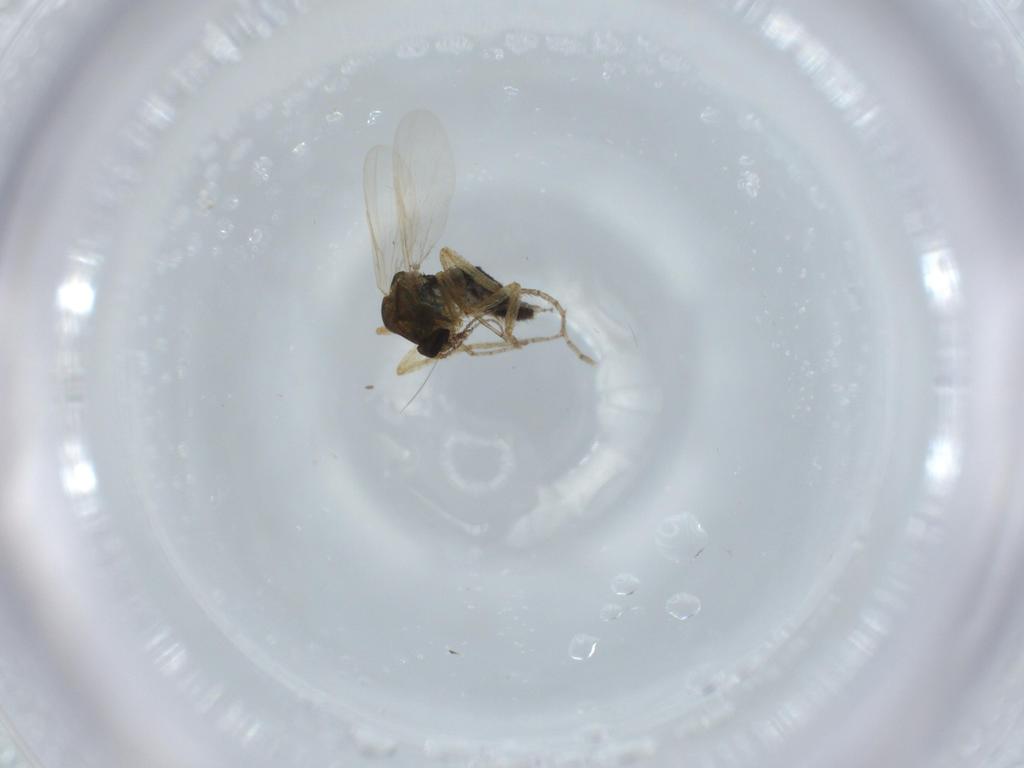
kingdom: Animalia
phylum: Arthropoda
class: Insecta
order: Diptera
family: Ceratopogonidae
